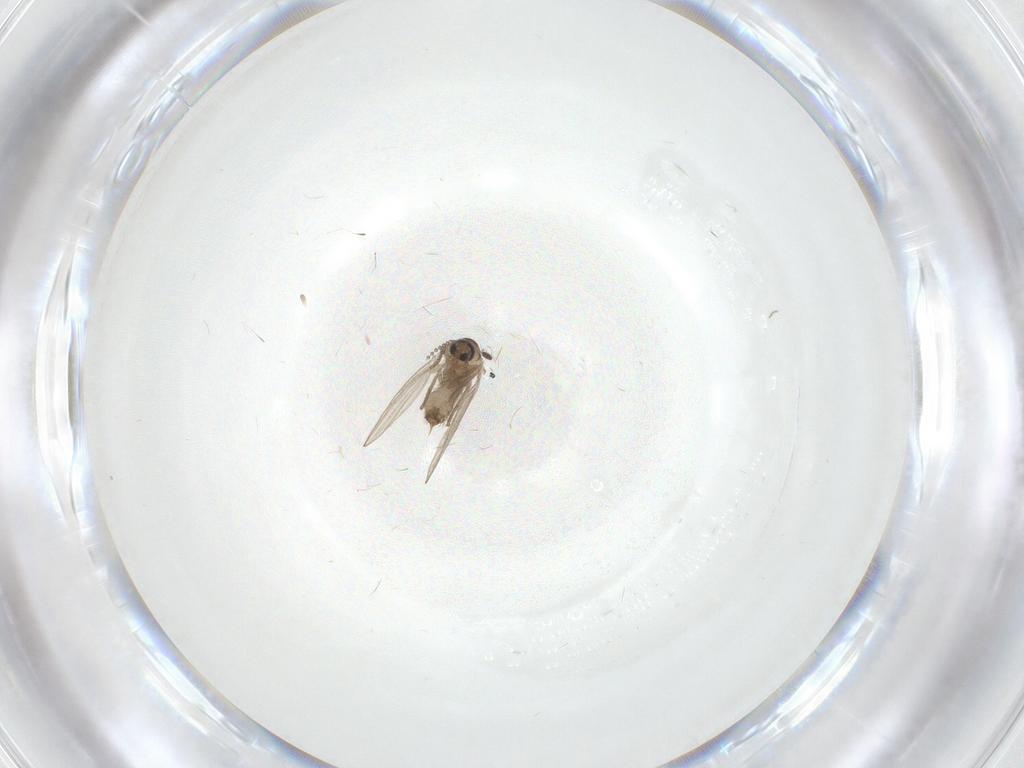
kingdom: Animalia
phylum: Arthropoda
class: Insecta
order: Diptera
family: Psychodidae
